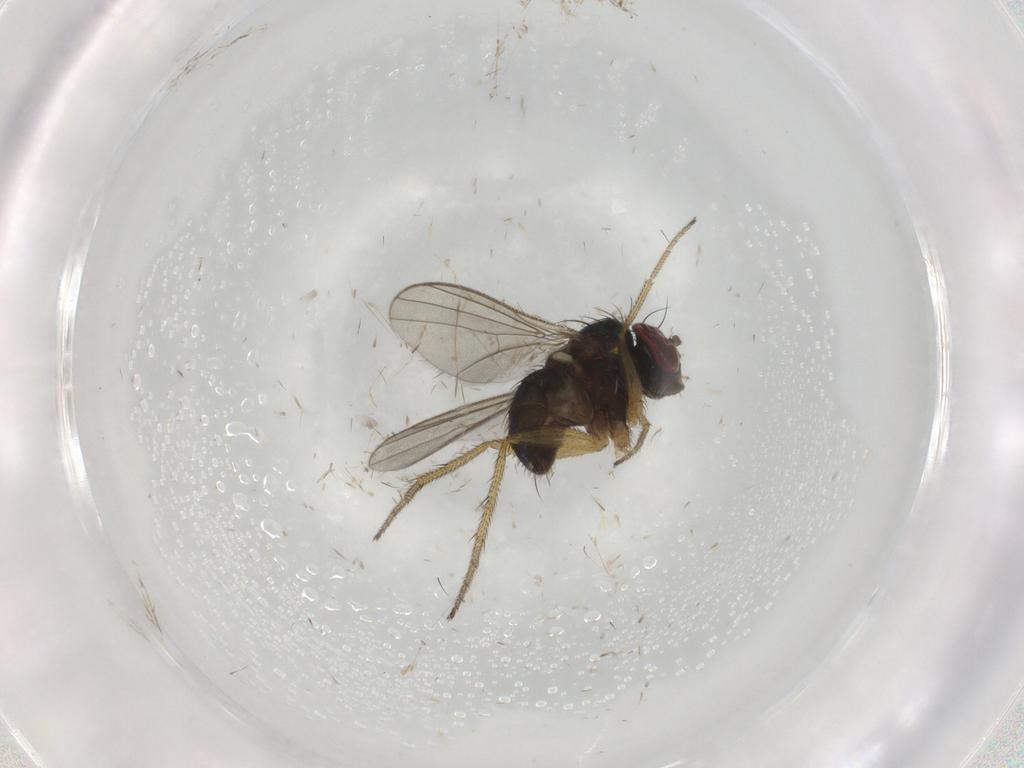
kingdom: Animalia
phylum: Arthropoda
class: Insecta
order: Diptera
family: Dolichopodidae
